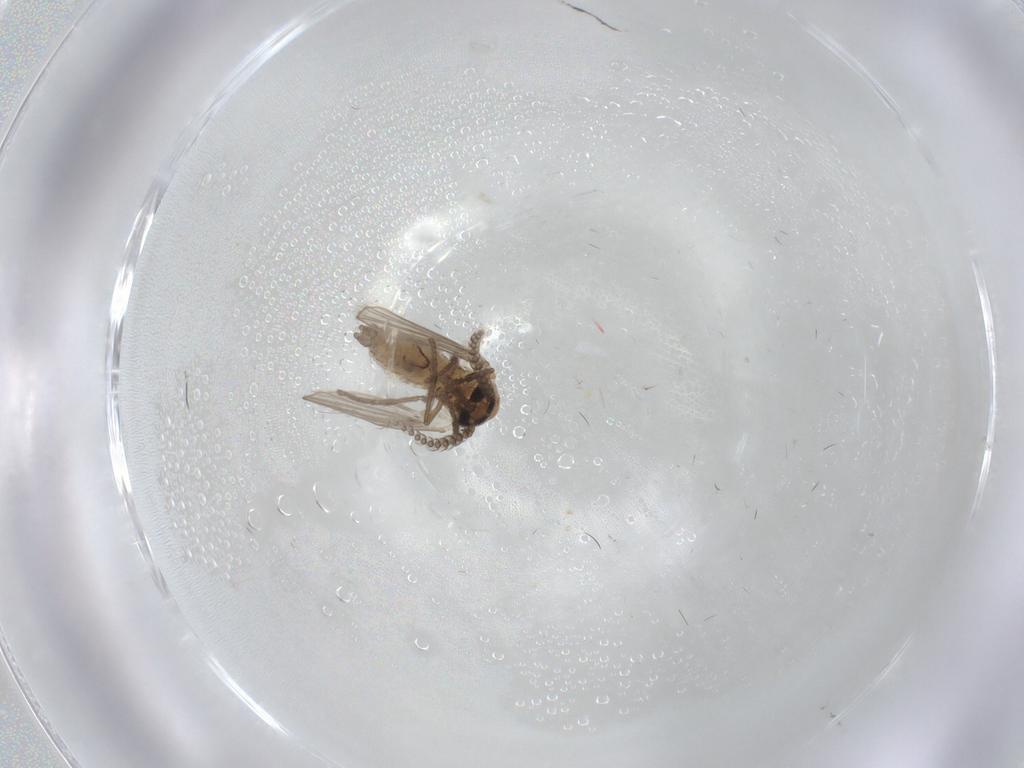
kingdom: Animalia
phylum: Arthropoda
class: Insecta
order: Diptera
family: Psychodidae
